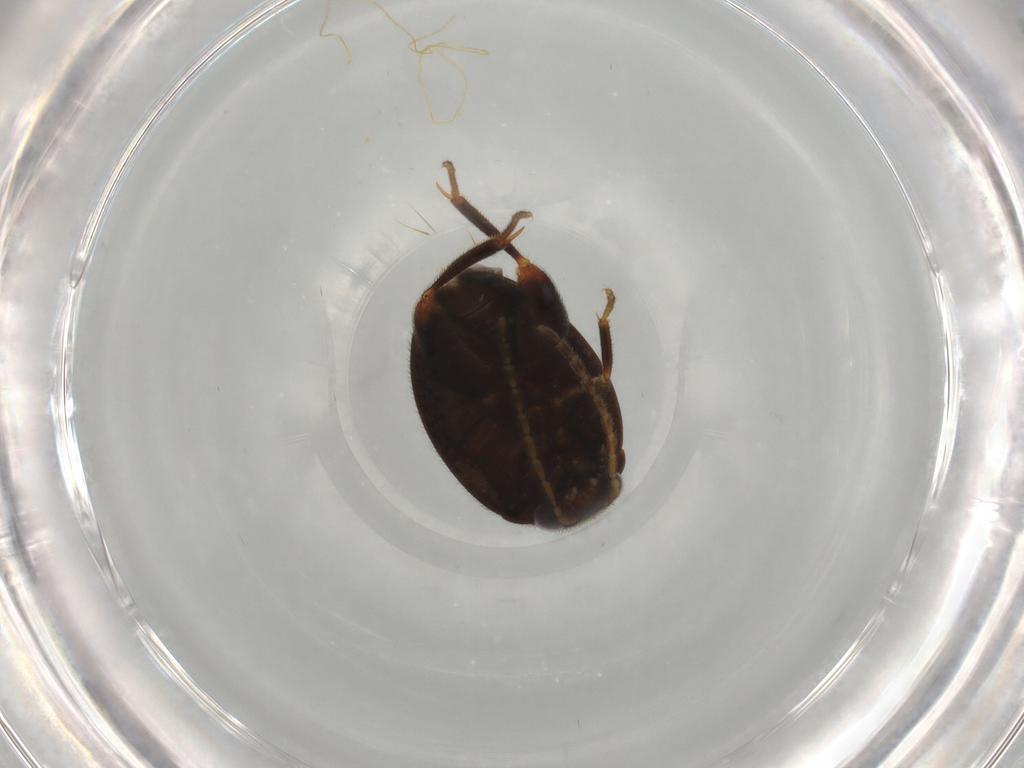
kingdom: Animalia
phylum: Arthropoda
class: Insecta
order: Coleoptera
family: Scirtidae
